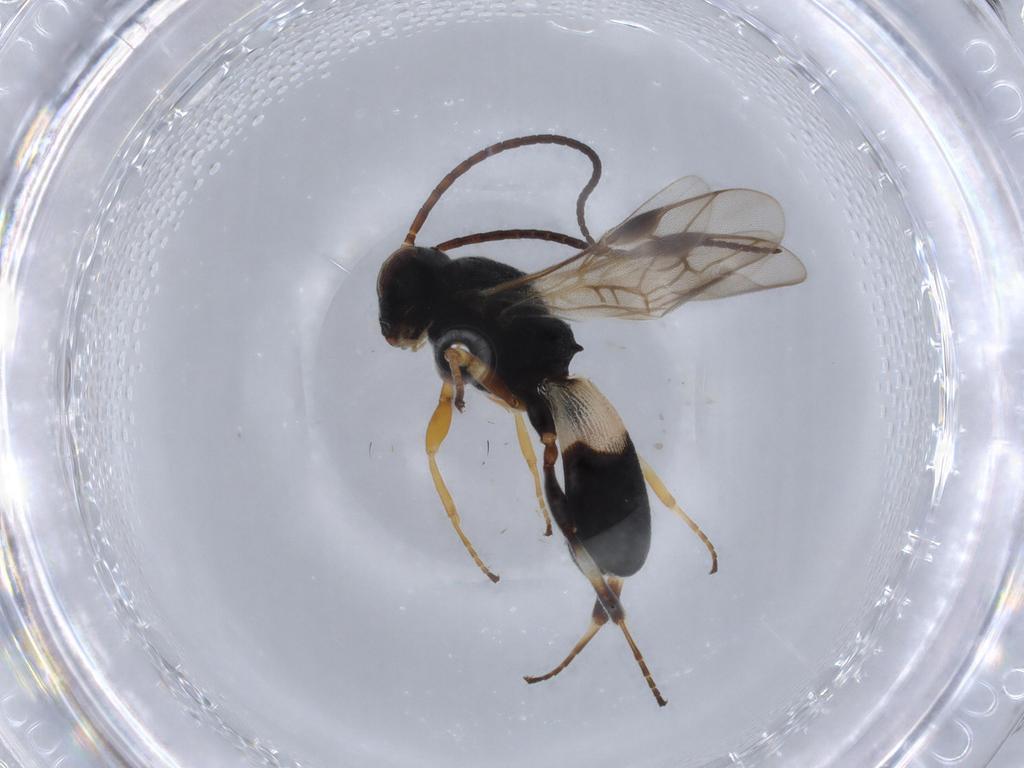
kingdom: Animalia
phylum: Arthropoda
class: Insecta
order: Hymenoptera
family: Braconidae
